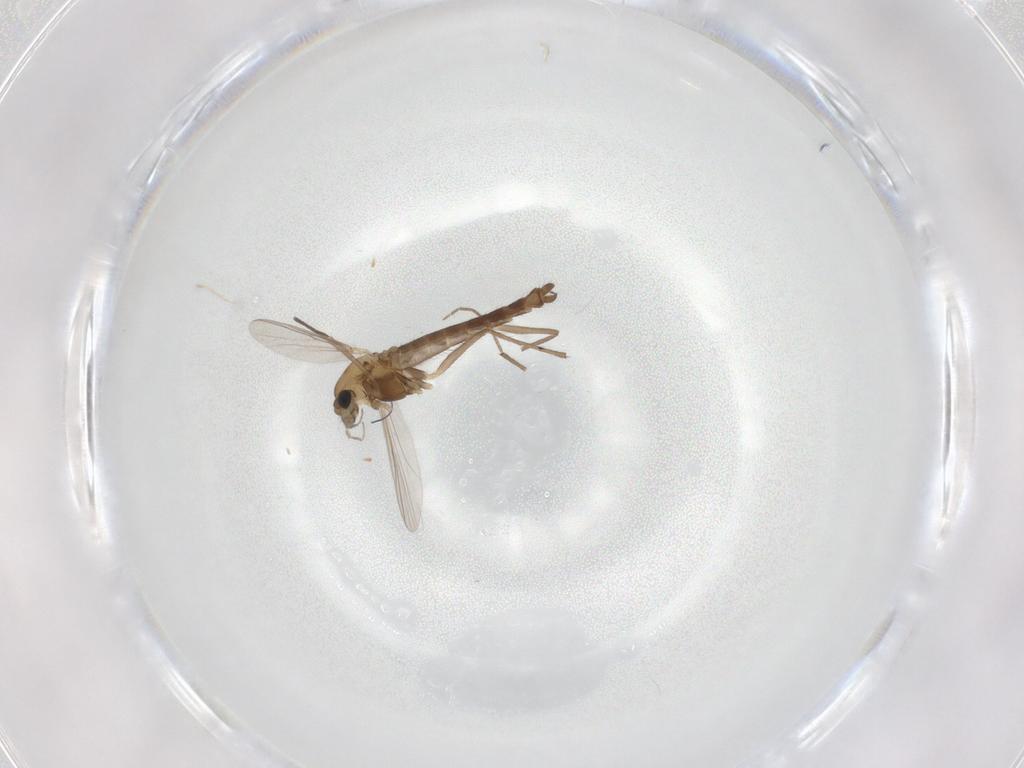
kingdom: Animalia
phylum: Arthropoda
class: Insecta
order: Diptera
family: Chironomidae
